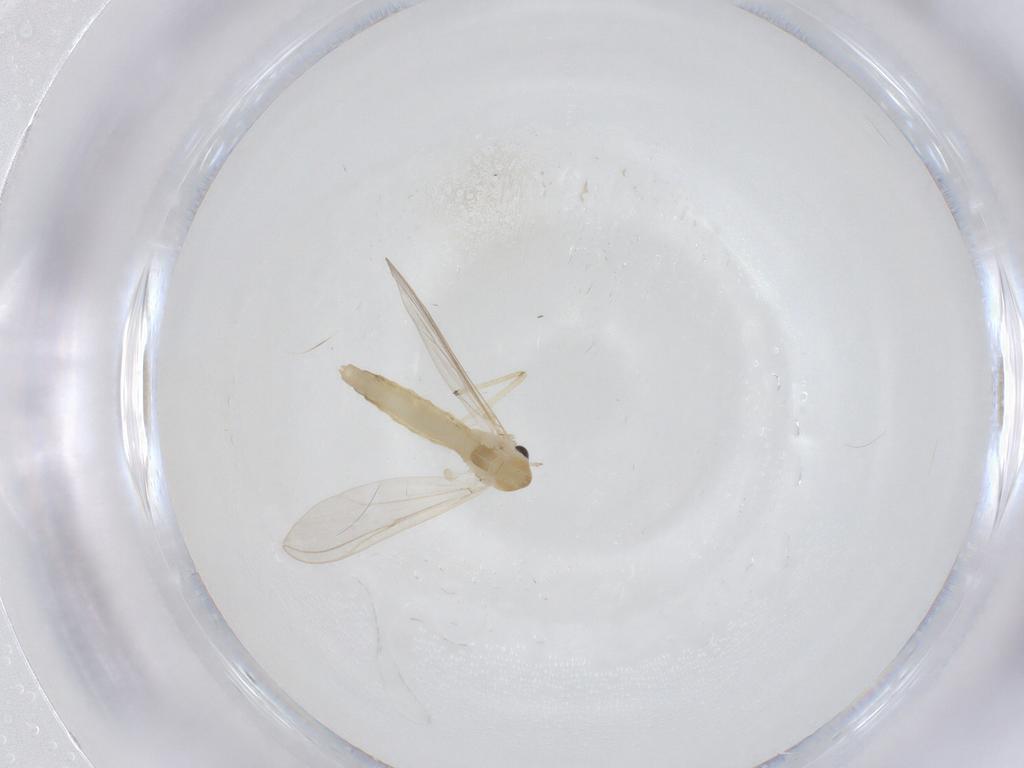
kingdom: Animalia
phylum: Arthropoda
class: Insecta
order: Diptera
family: Chironomidae
